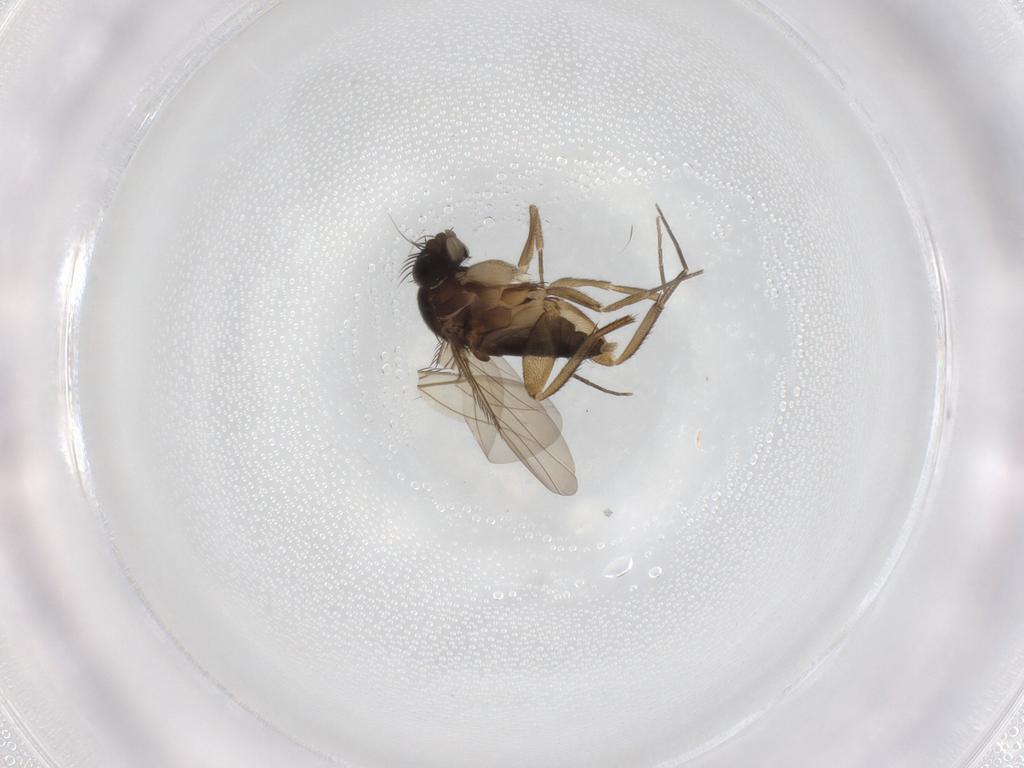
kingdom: Animalia
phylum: Arthropoda
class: Insecta
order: Diptera
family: Phoridae
